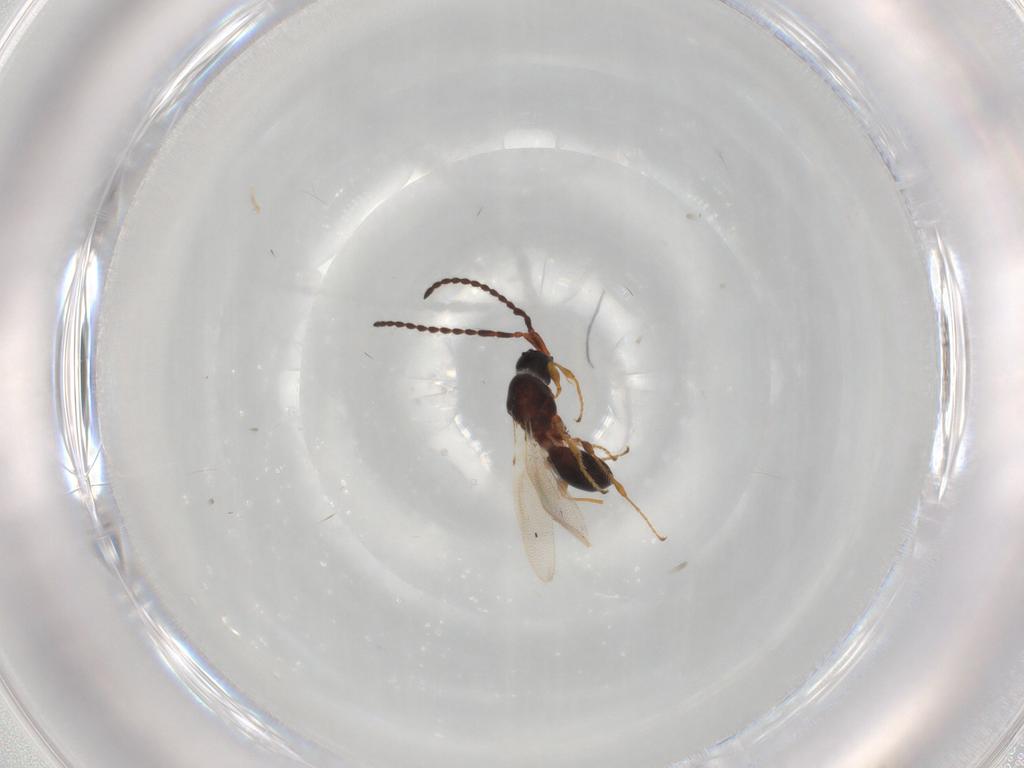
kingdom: Animalia
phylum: Arthropoda
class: Insecta
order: Hymenoptera
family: Diapriidae
